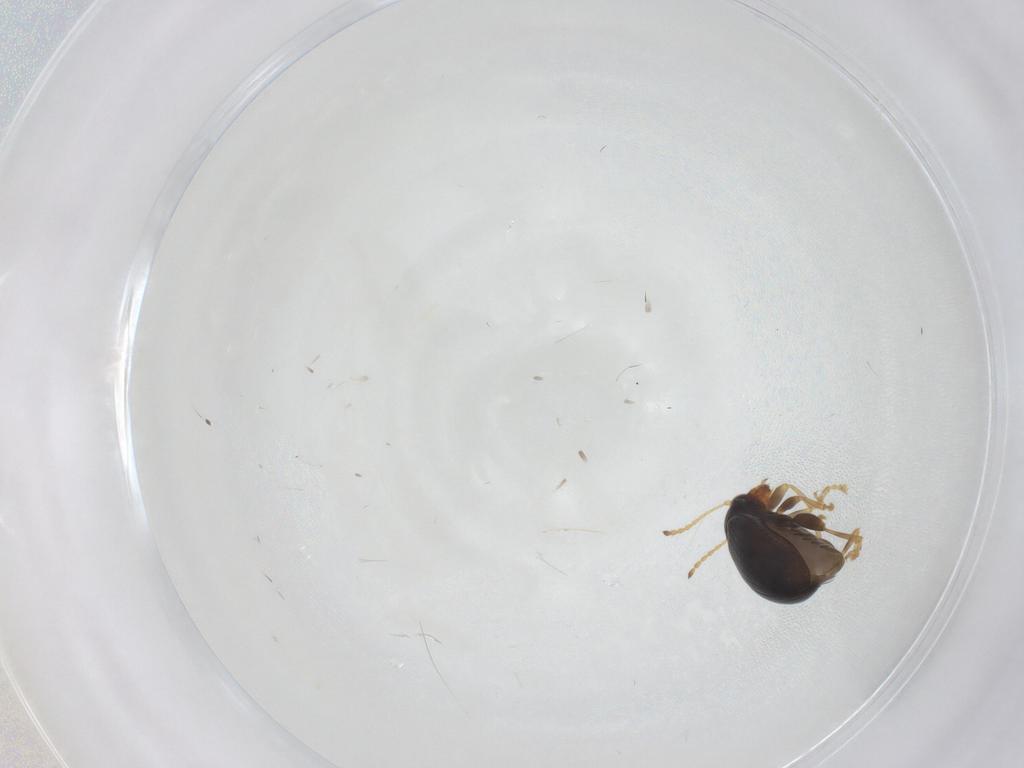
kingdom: Animalia
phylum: Arthropoda
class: Insecta
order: Coleoptera
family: Chrysomelidae
